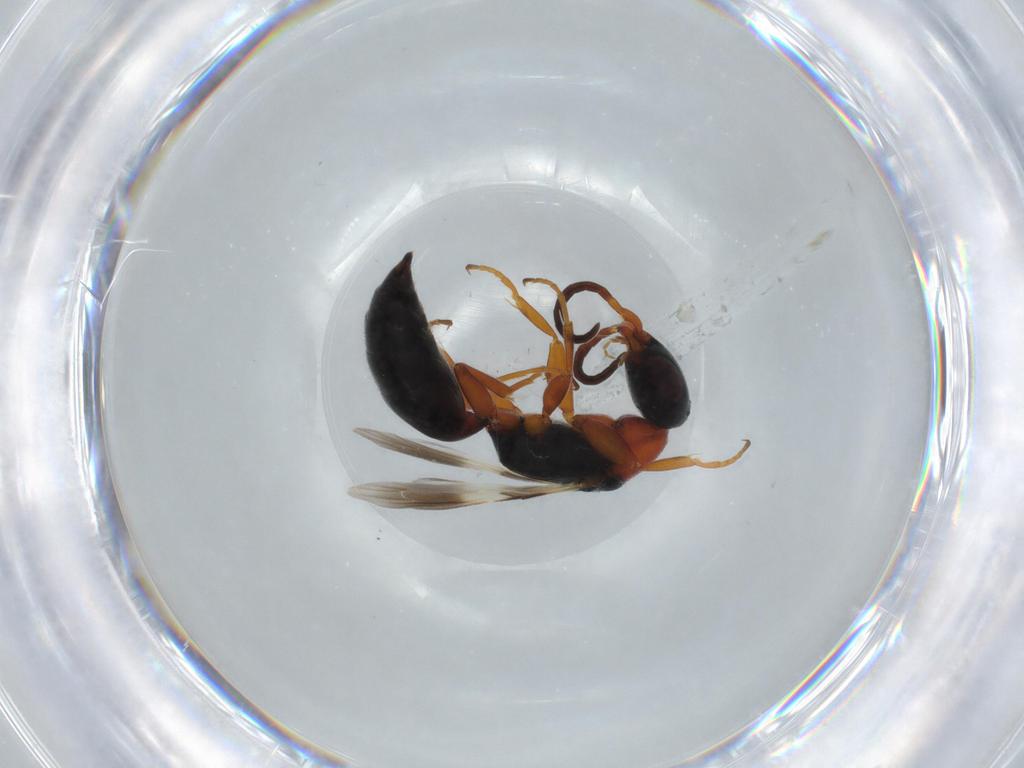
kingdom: Animalia
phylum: Arthropoda
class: Insecta
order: Hymenoptera
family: Bethylidae
